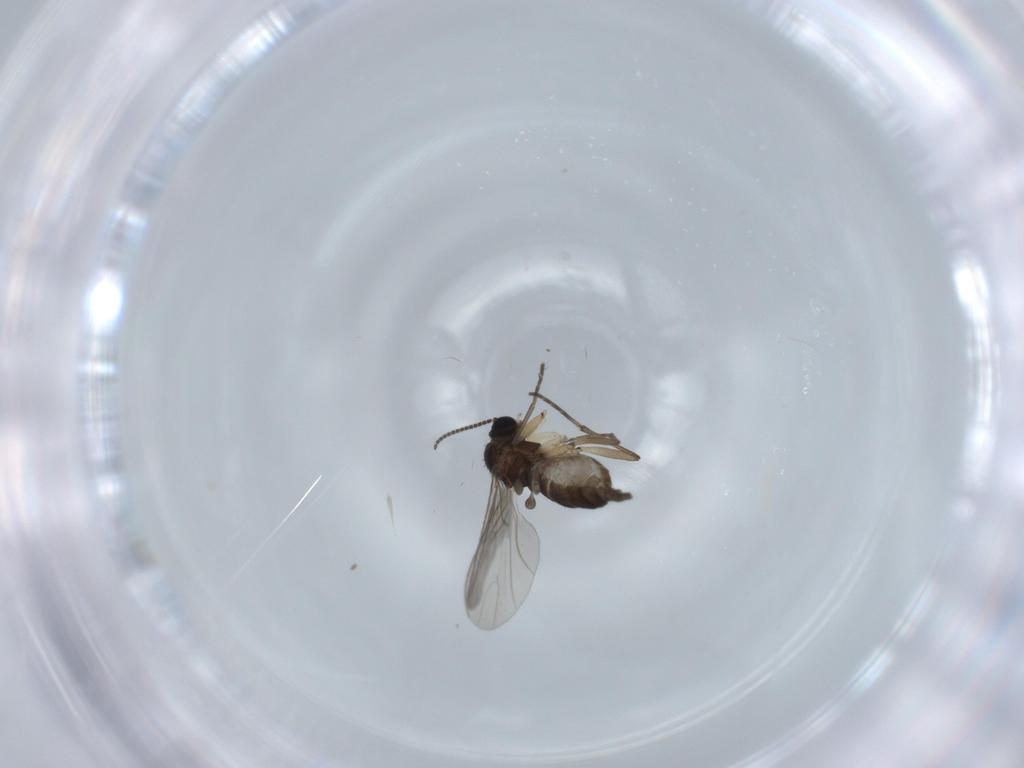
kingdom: Animalia
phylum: Arthropoda
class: Insecta
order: Diptera
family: Sciaridae
